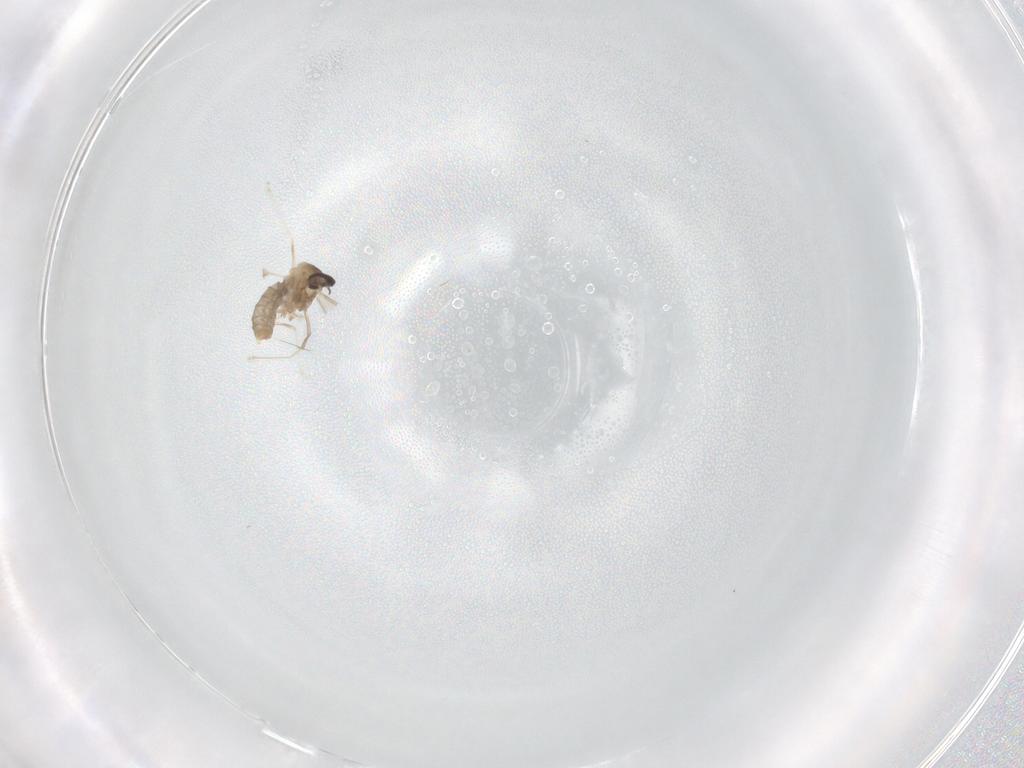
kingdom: Animalia
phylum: Arthropoda
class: Insecta
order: Diptera
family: Cecidomyiidae
